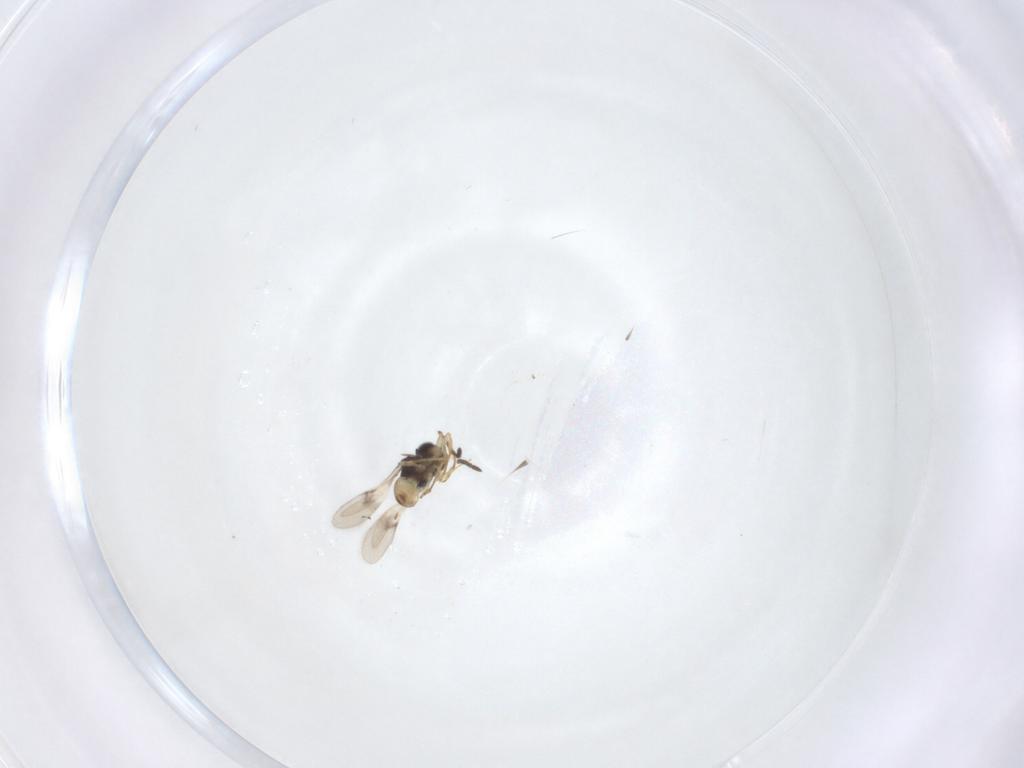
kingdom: Animalia
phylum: Arthropoda
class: Insecta
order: Hymenoptera
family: Scelionidae
